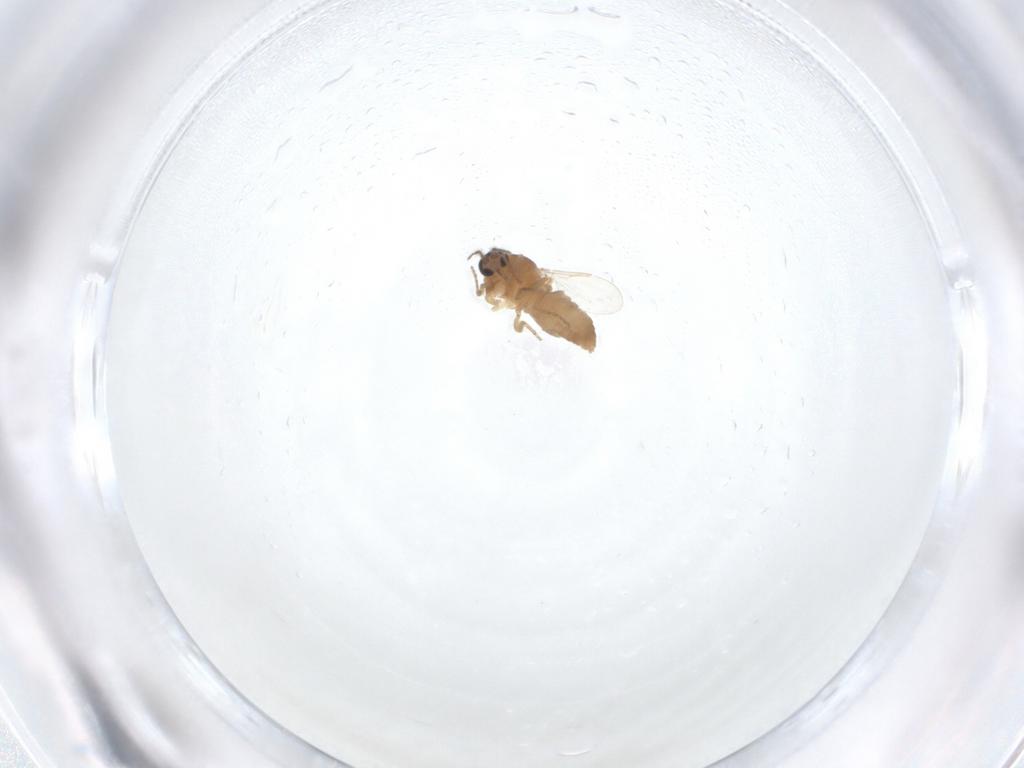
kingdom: Animalia
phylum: Arthropoda
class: Insecta
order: Diptera
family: Ceratopogonidae
